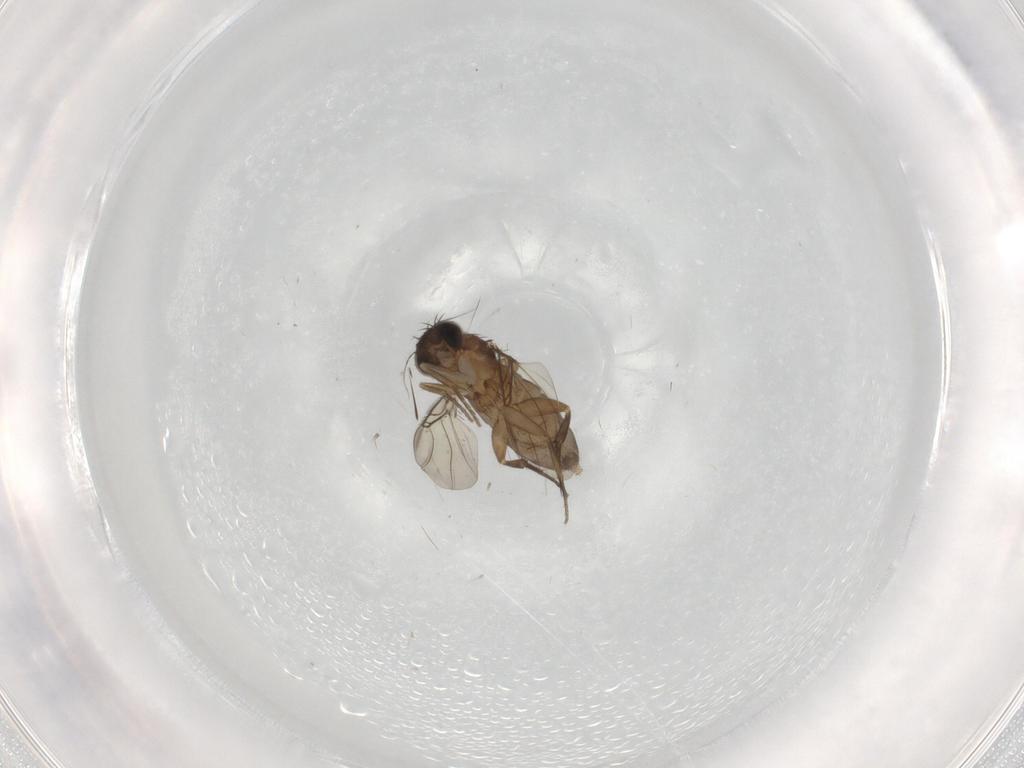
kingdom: Animalia
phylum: Arthropoda
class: Insecta
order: Diptera
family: Phoridae
